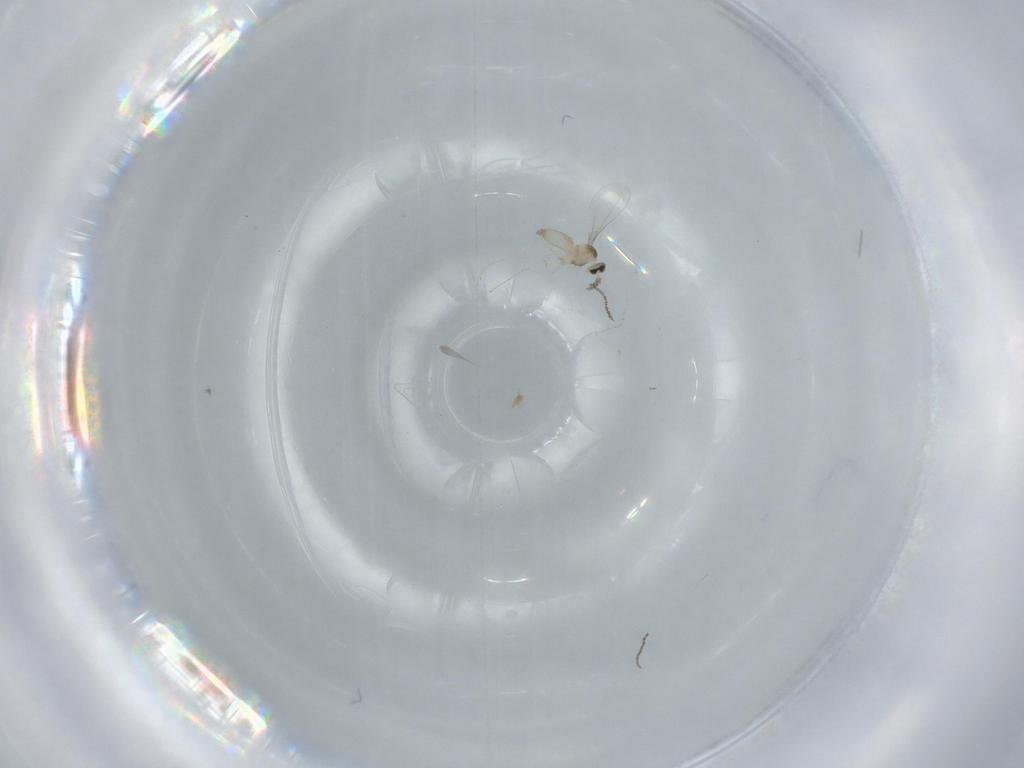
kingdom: Animalia
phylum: Arthropoda
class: Insecta
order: Diptera
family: Cecidomyiidae
